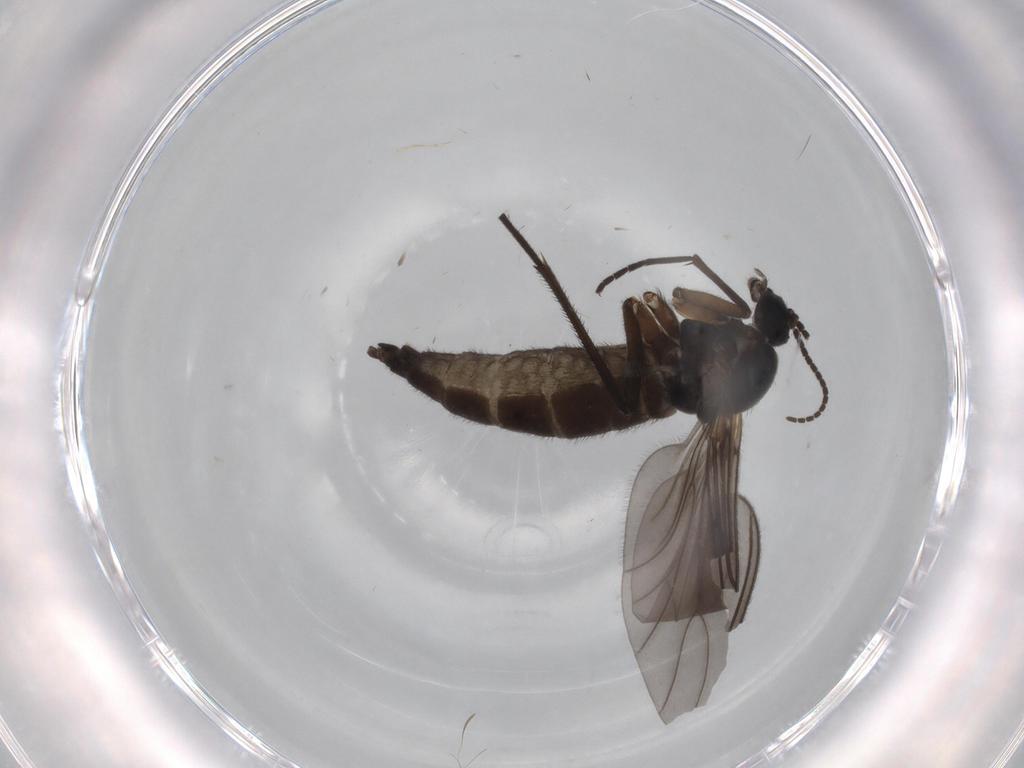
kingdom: Animalia
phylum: Arthropoda
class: Insecta
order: Diptera
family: Sciaridae
